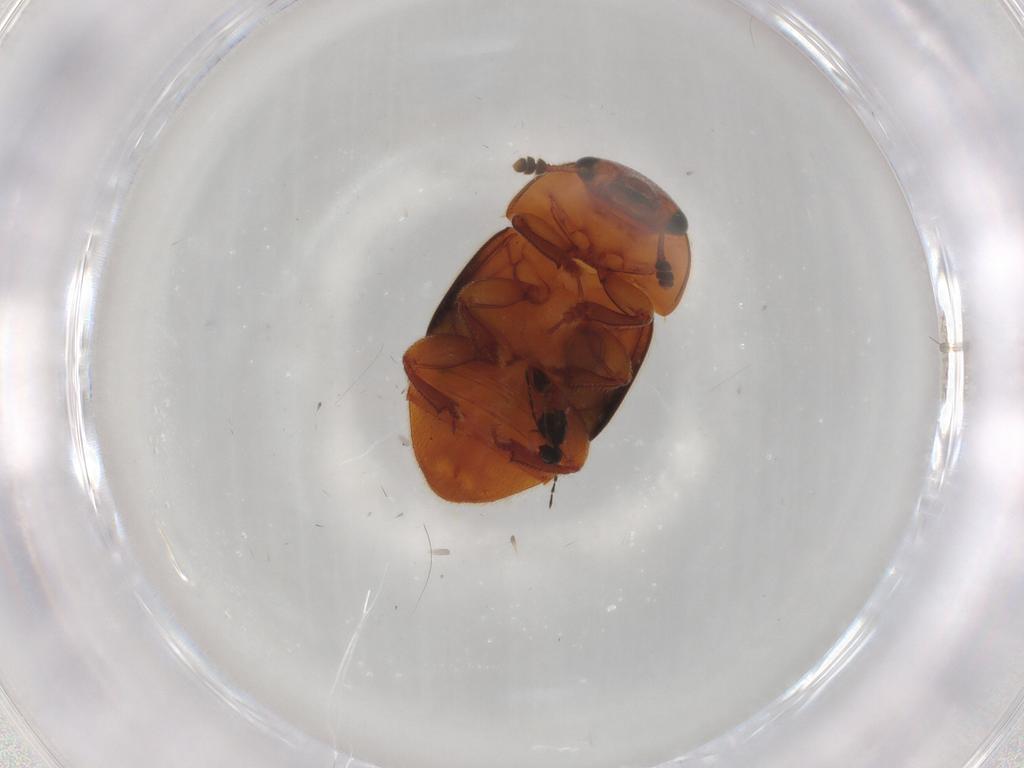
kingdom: Animalia
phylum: Arthropoda
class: Insecta
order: Coleoptera
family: Nitidulidae
